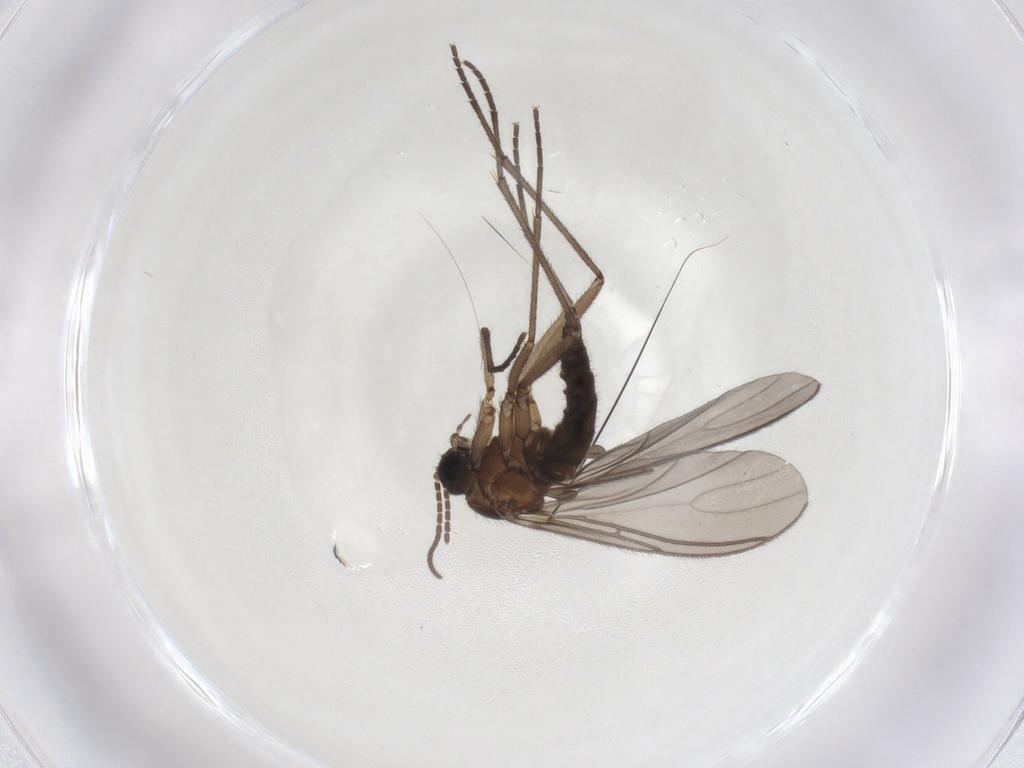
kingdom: Animalia
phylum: Arthropoda
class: Insecta
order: Diptera
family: Sciaridae
